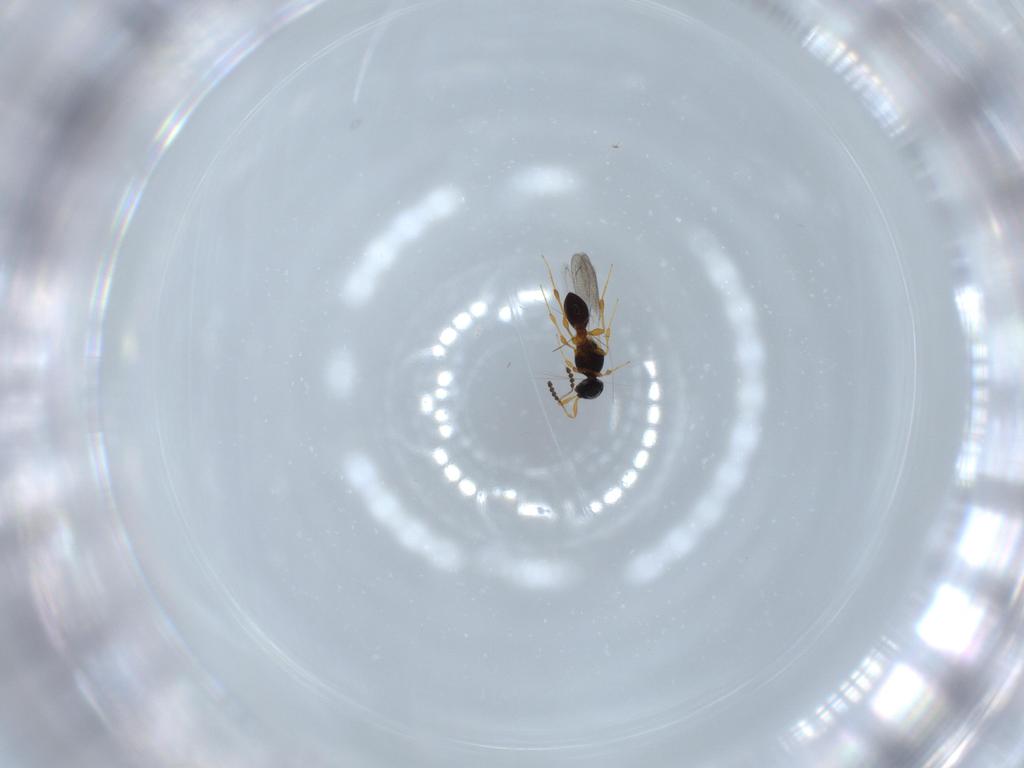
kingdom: Animalia
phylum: Arthropoda
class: Insecta
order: Hymenoptera
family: Platygastridae
